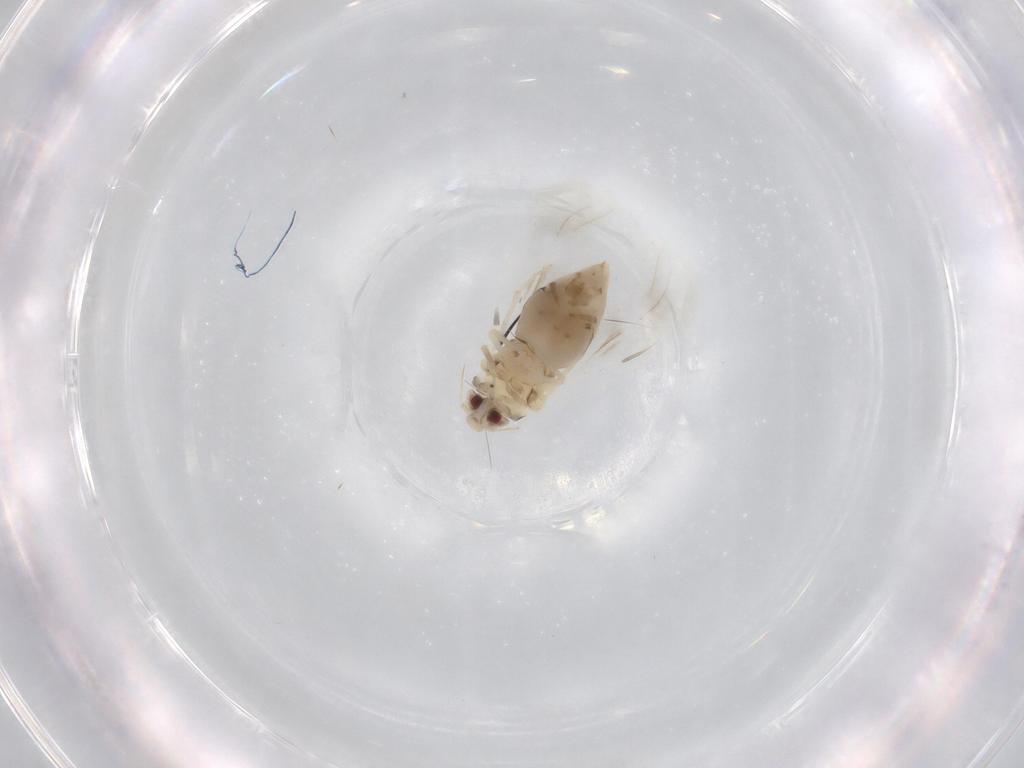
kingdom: Animalia
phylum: Arthropoda
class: Insecta
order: Hemiptera
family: Aleyrodidae
